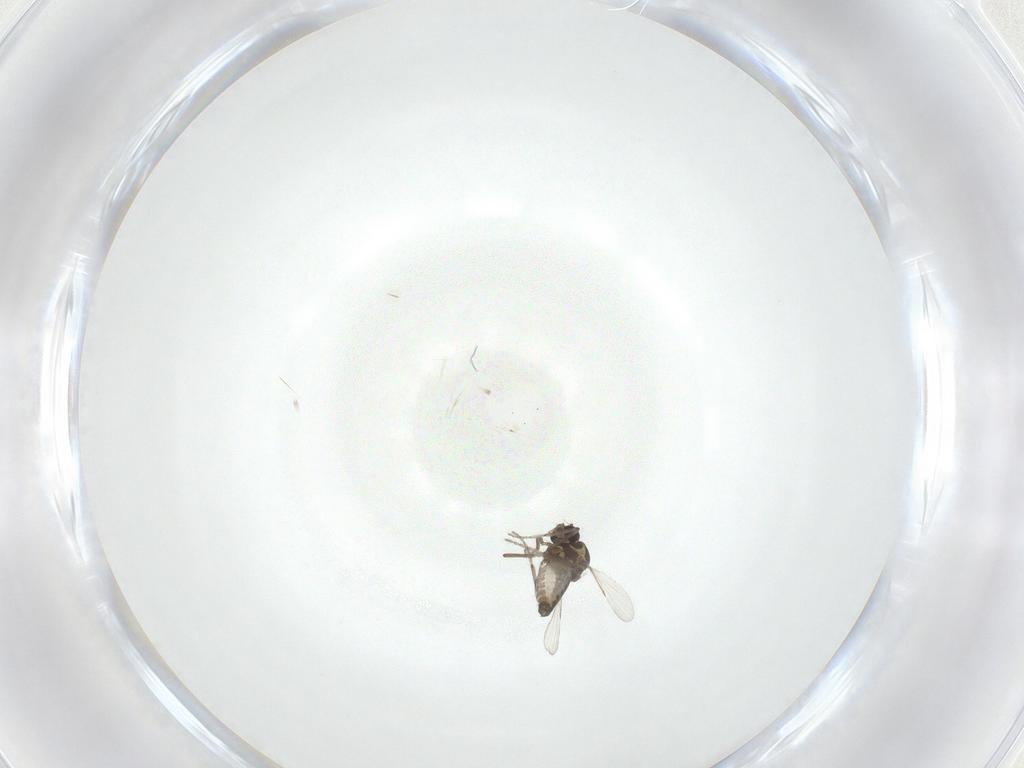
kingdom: Animalia
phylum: Arthropoda
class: Insecta
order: Diptera
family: Ceratopogonidae
